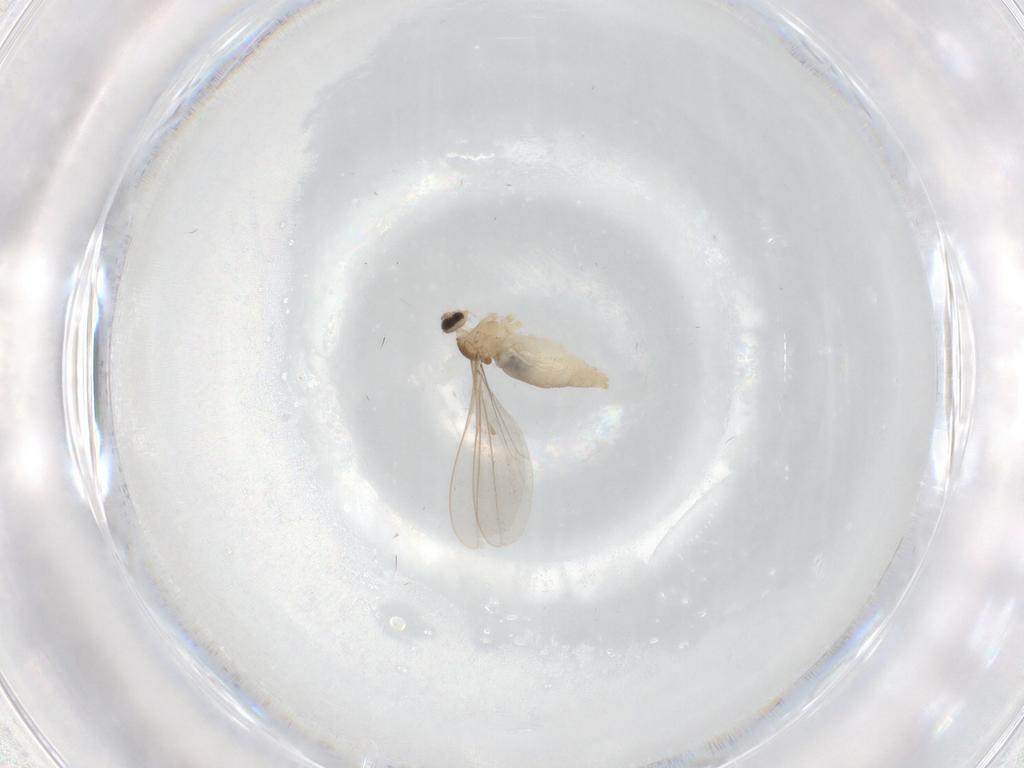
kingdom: Animalia
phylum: Arthropoda
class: Insecta
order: Diptera
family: Cecidomyiidae
